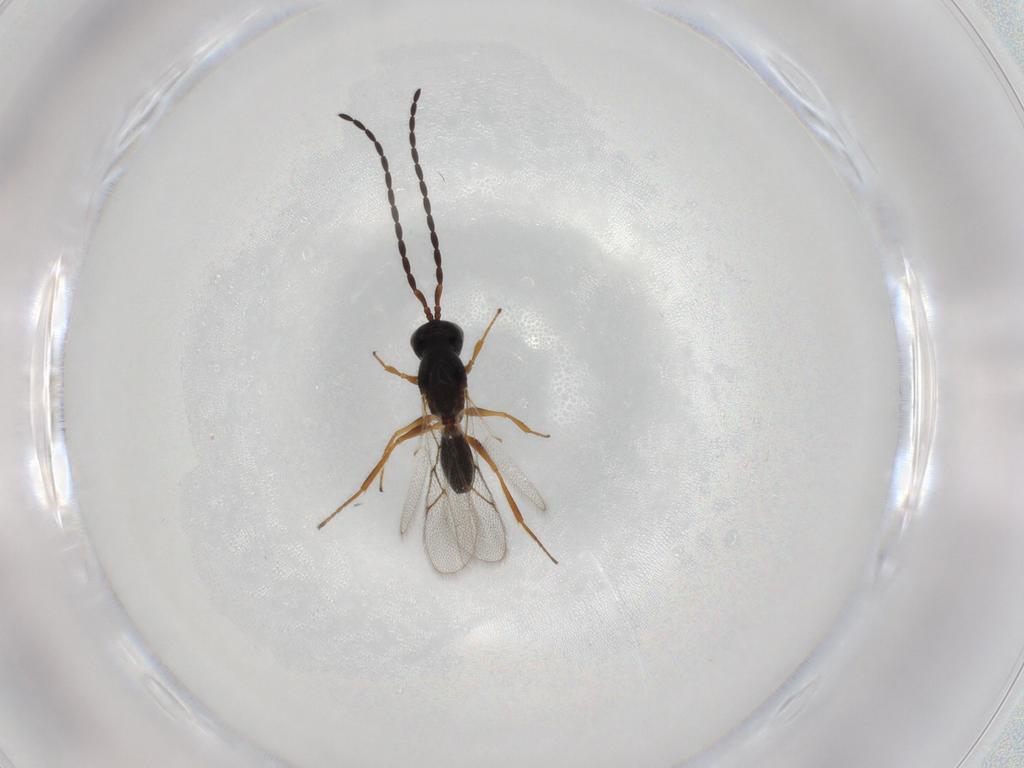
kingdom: Animalia
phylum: Arthropoda
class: Insecta
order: Hymenoptera
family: Figitidae
